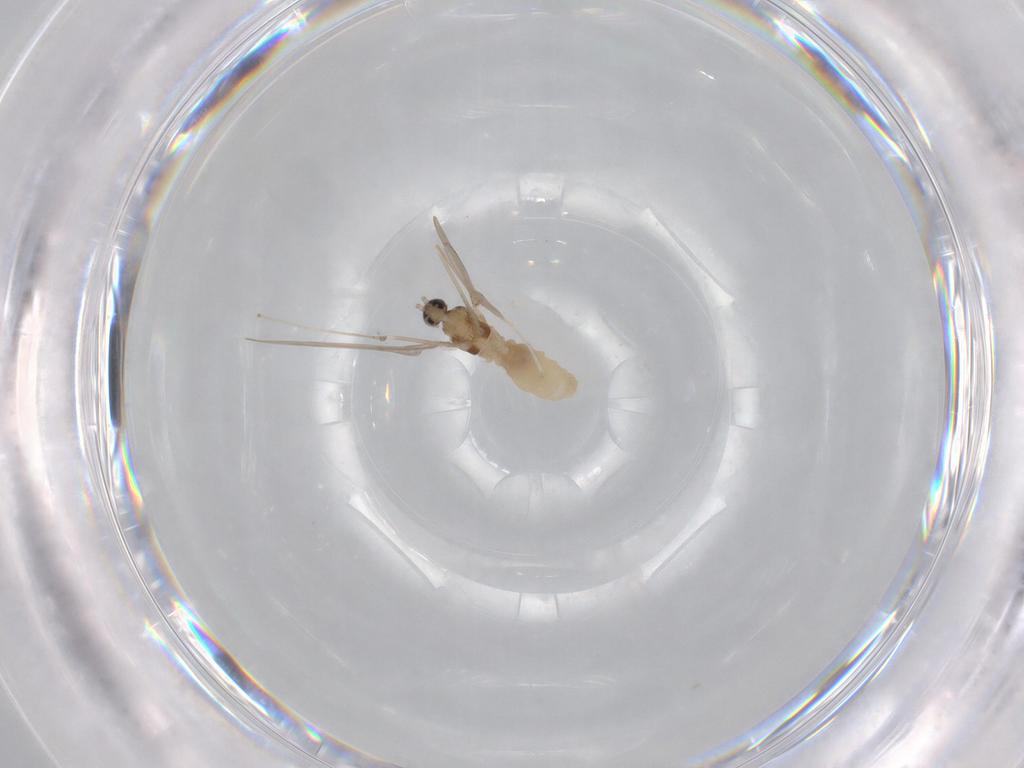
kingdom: Animalia
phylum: Arthropoda
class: Insecta
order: Diptera
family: Cecidomyiidae
